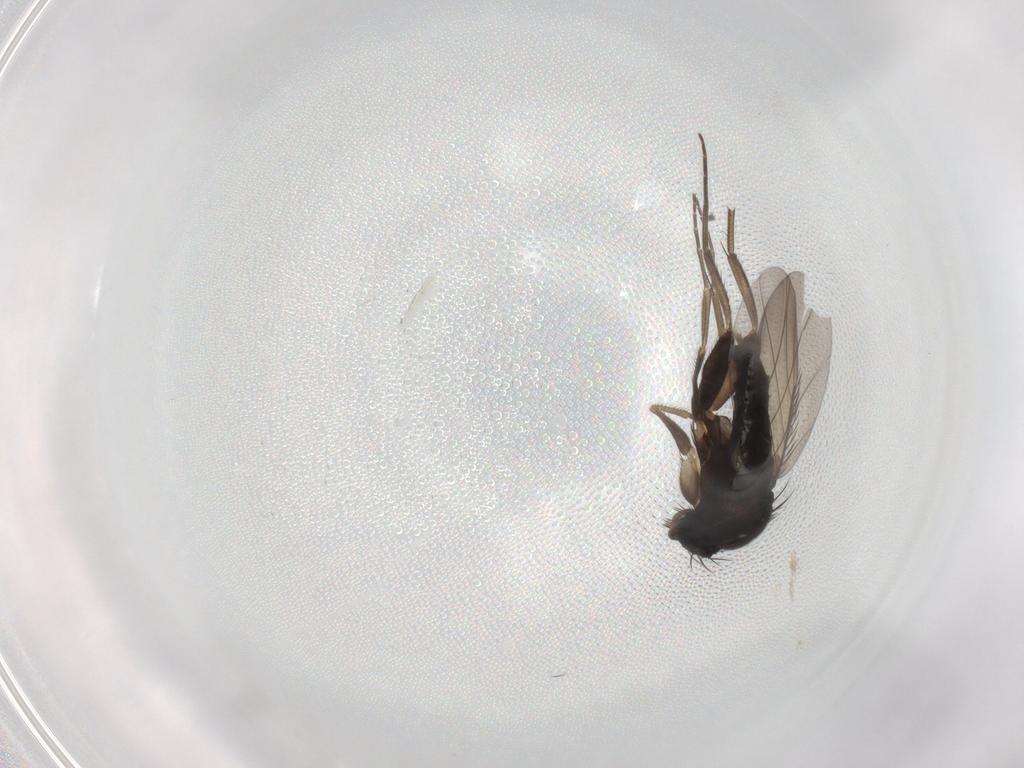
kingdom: Animalia
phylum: Arthropoda
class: Insecta
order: Diptera
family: Phoridae
